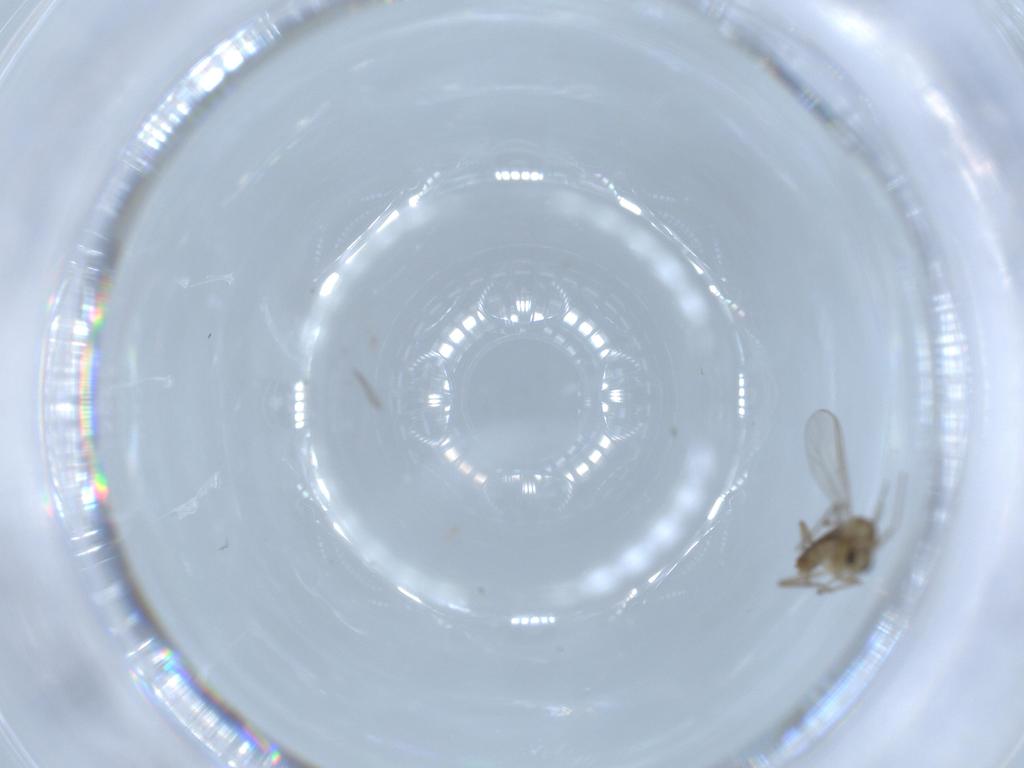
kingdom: Animalia
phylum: Arthropoda
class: Insecta
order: Diptera
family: Chironomidae
